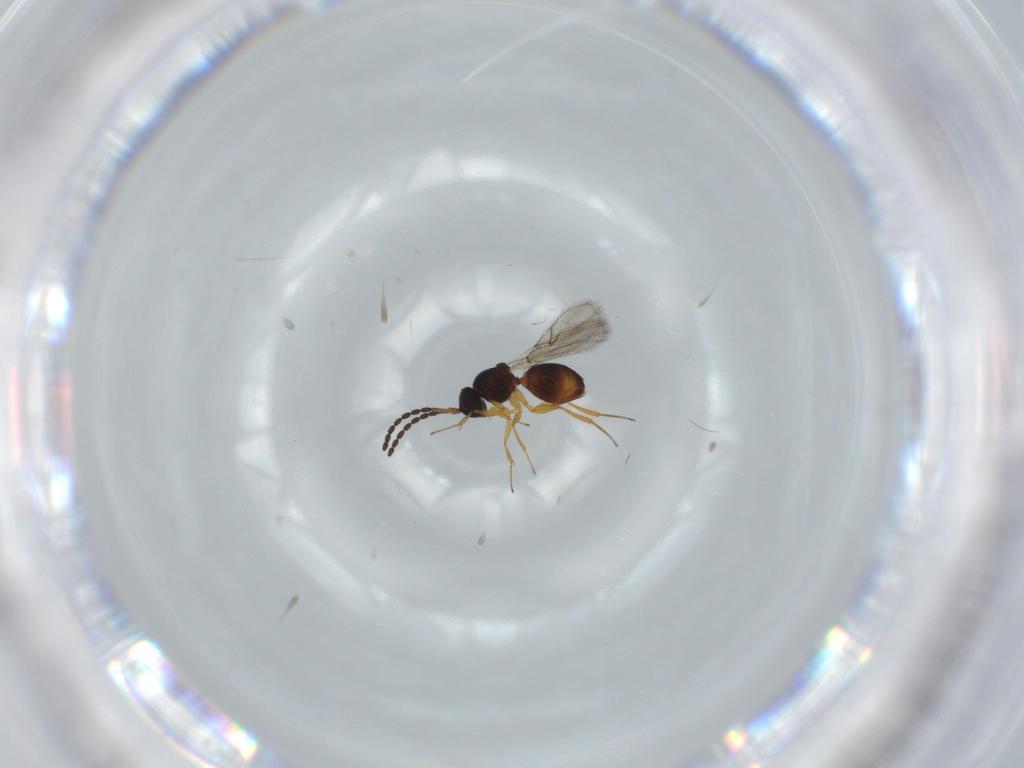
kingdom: Animalia
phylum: Arthropoda
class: Insecta
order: Hymenoptera
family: Figitidae
